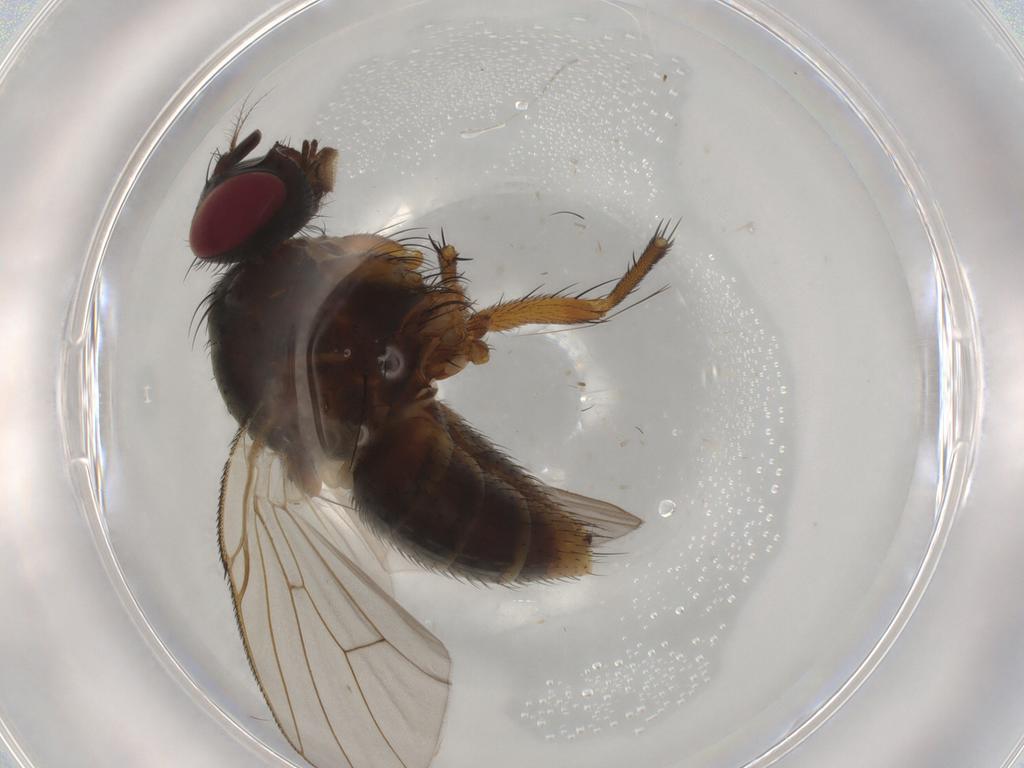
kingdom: Animalia
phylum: Arthropoda
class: Insecta
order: Diptera
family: Muscidae
